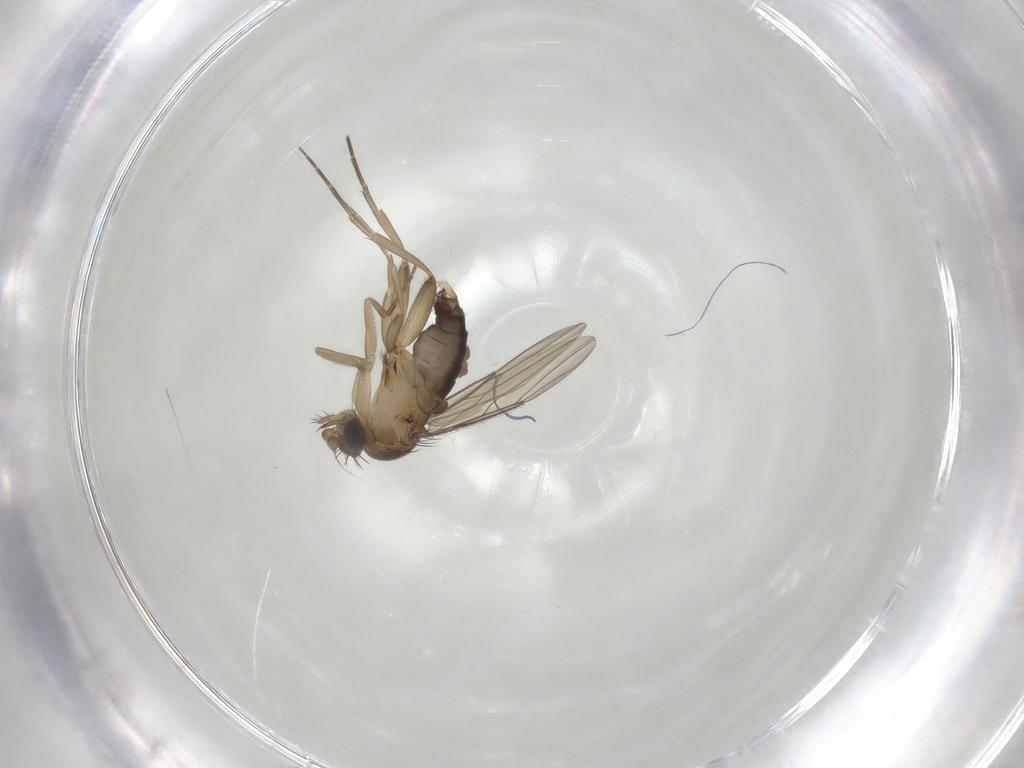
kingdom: Animalia
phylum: Arthropoda
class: Insecta
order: Diptera
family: Phoridae
